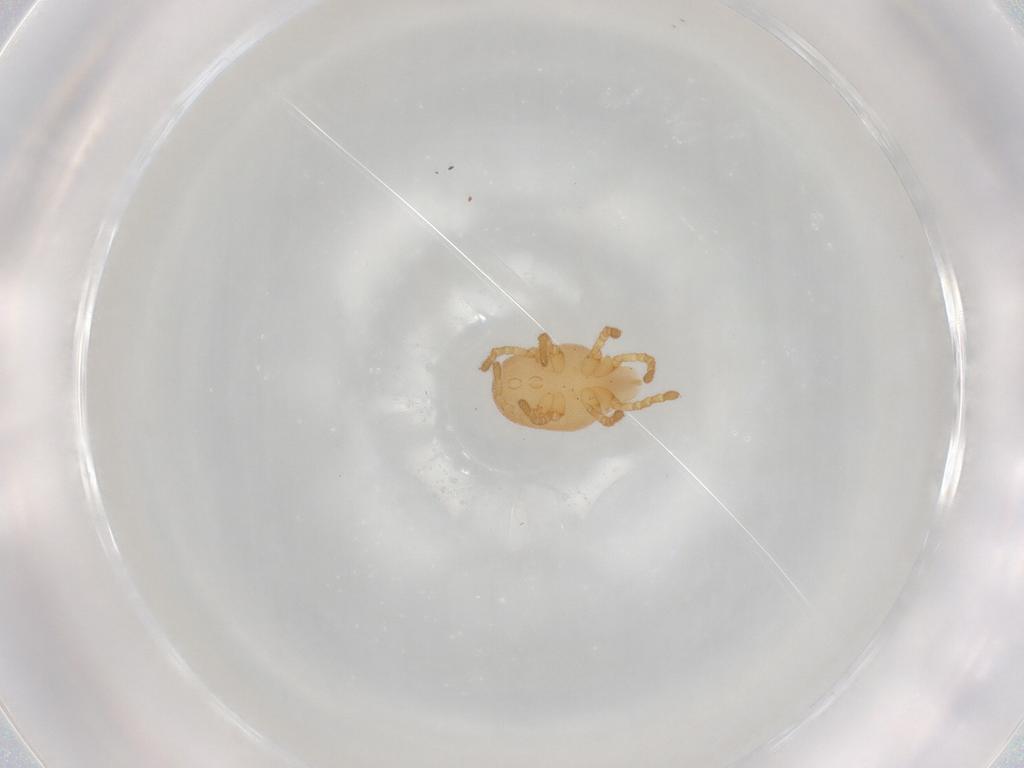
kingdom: Animalia
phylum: Arthropoda
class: Arachnida
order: Trombidiformes
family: Calyptostomatidae
